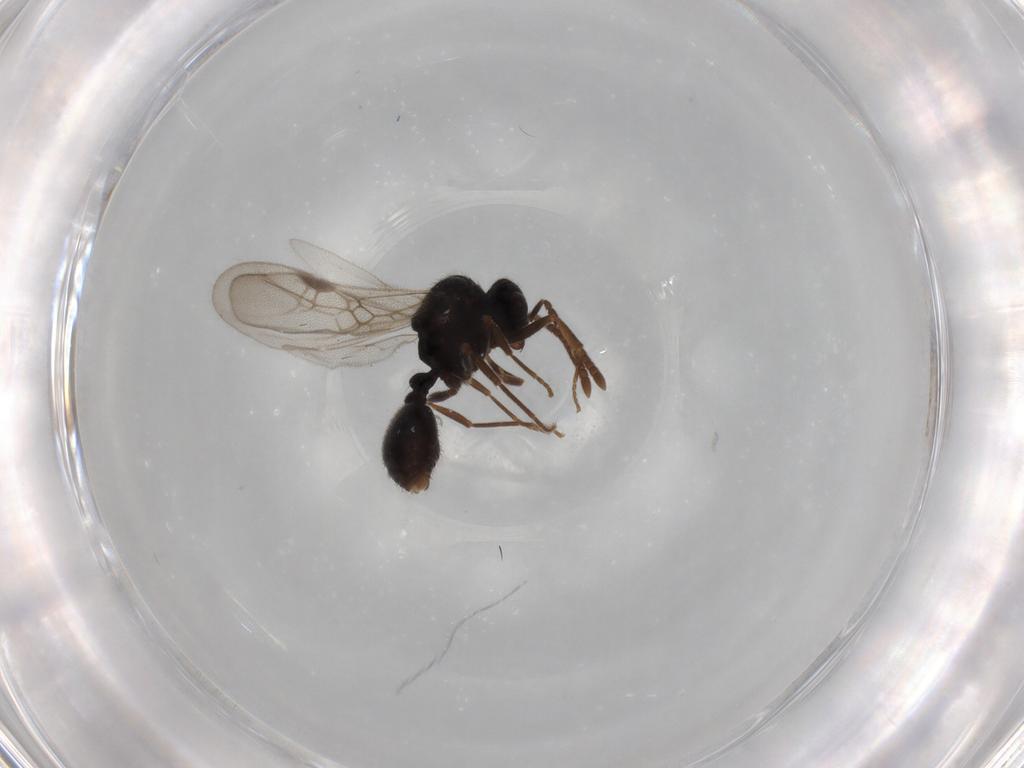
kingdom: Animalia
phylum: Arthropoda
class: Insecta
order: Hymenoptera
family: Formicidae
